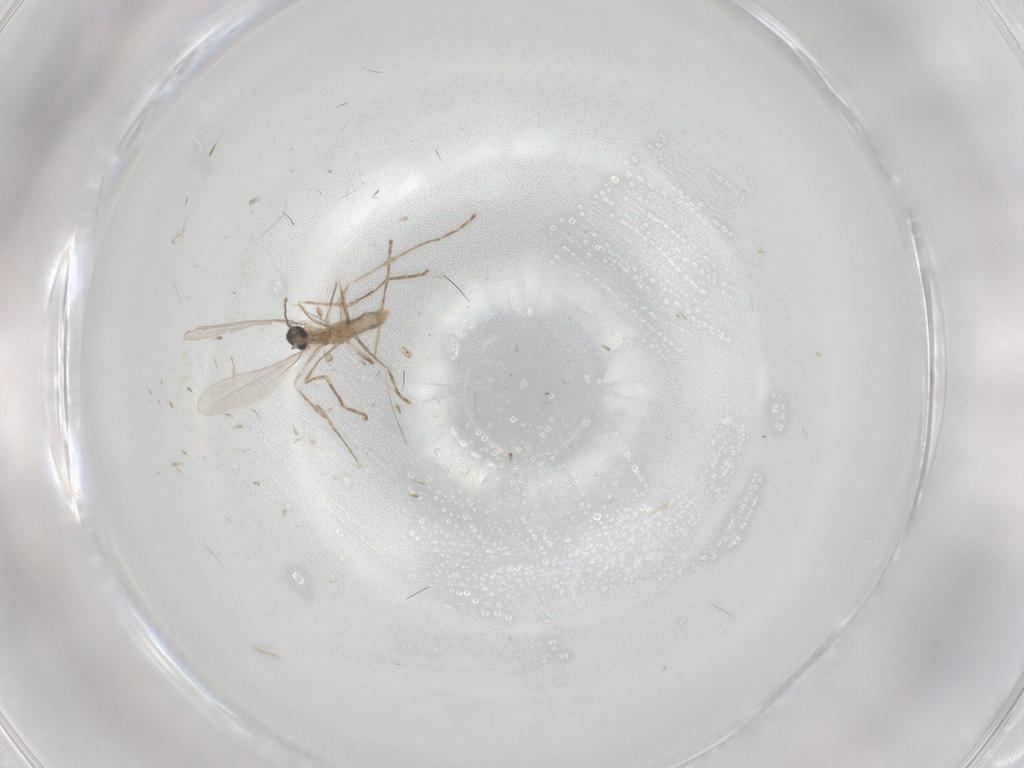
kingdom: Animalia
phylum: Arthropoda
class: Insecta
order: Diptera
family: Cecidomyiidae
